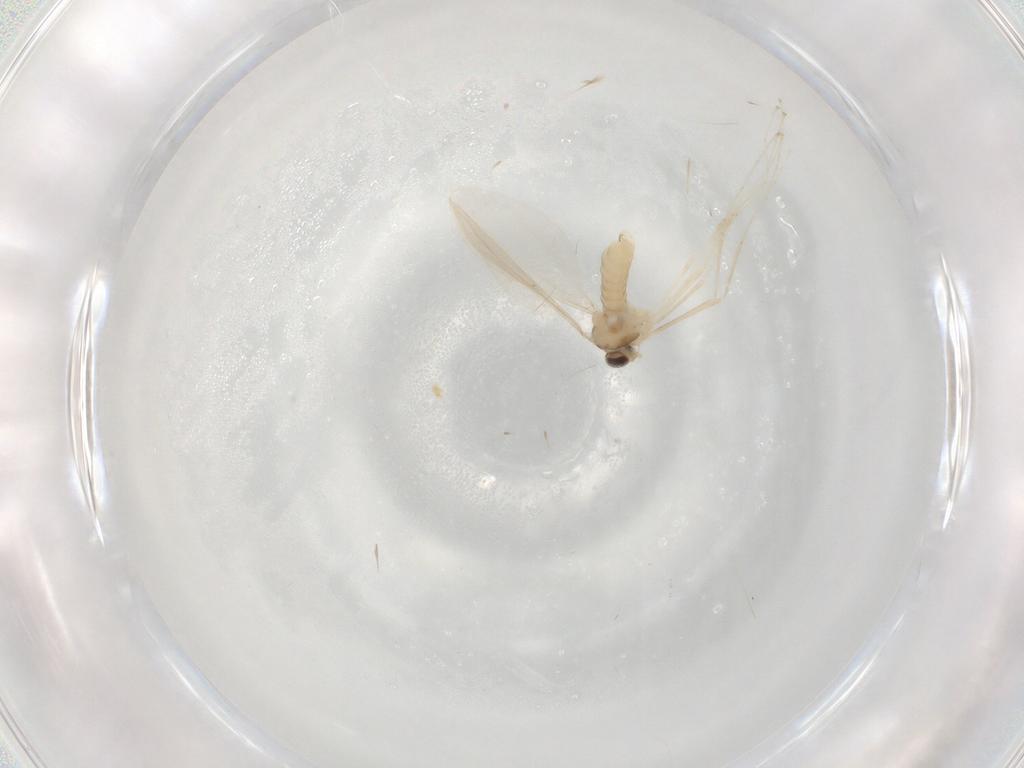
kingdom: Animalia
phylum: Arthropoda
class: Insecta
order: Diptera
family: Cecidomyiidae
